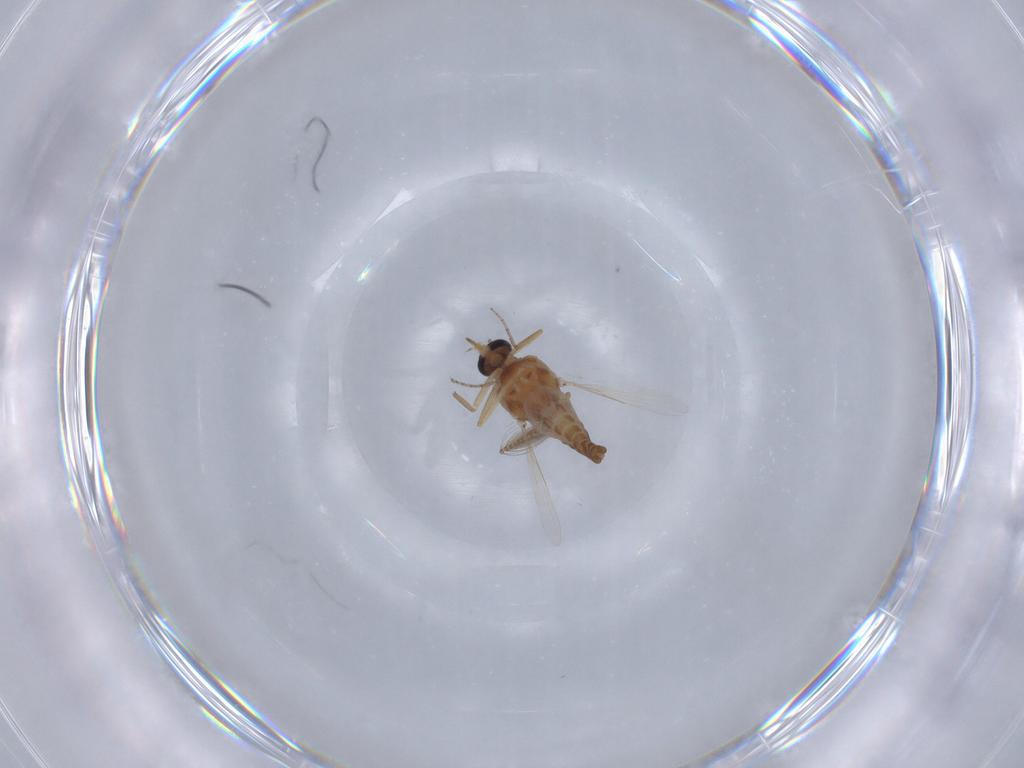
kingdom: Animalia
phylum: Arthropoda
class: Insecta
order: Diptera
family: Ceratopogonidae
